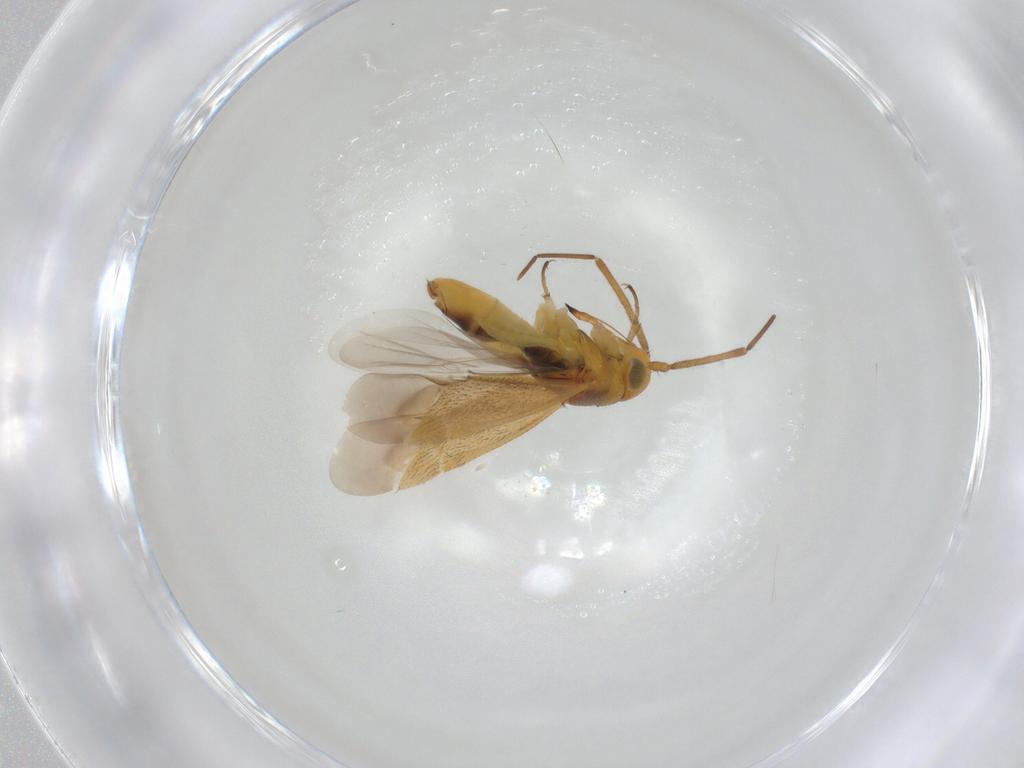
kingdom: Animalia
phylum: Arthropoda
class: Insecta
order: Hemiptera
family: Miridae
